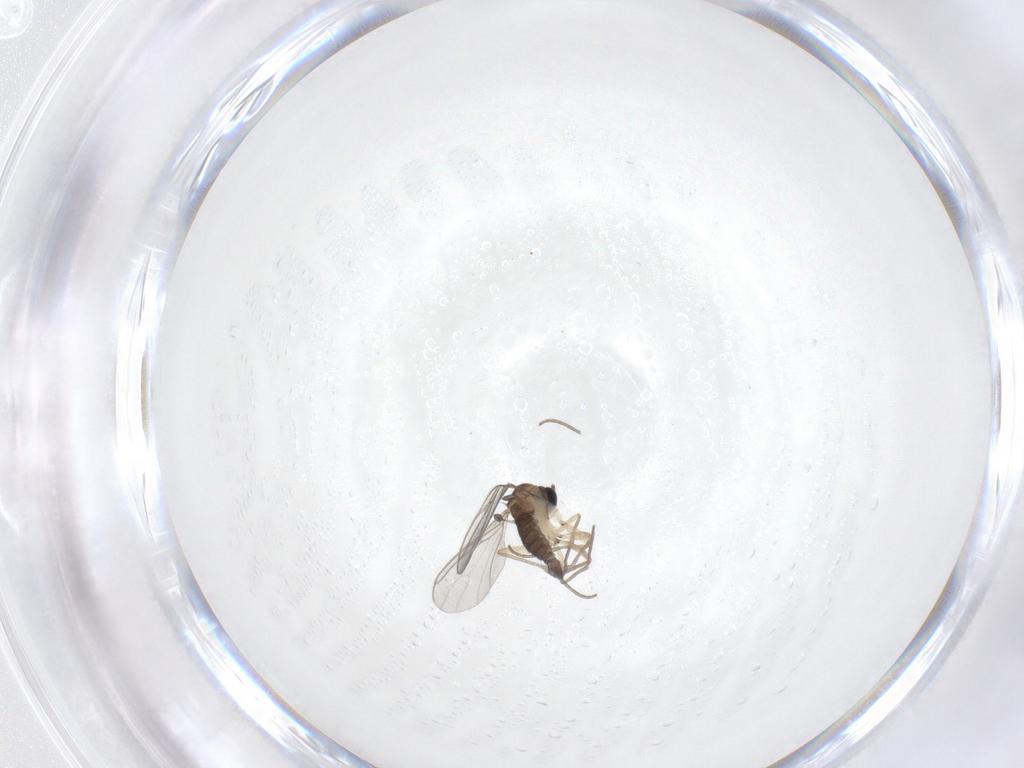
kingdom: Animalia
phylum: Arthropoda
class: Insecta
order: Diptera
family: Sciaridae
